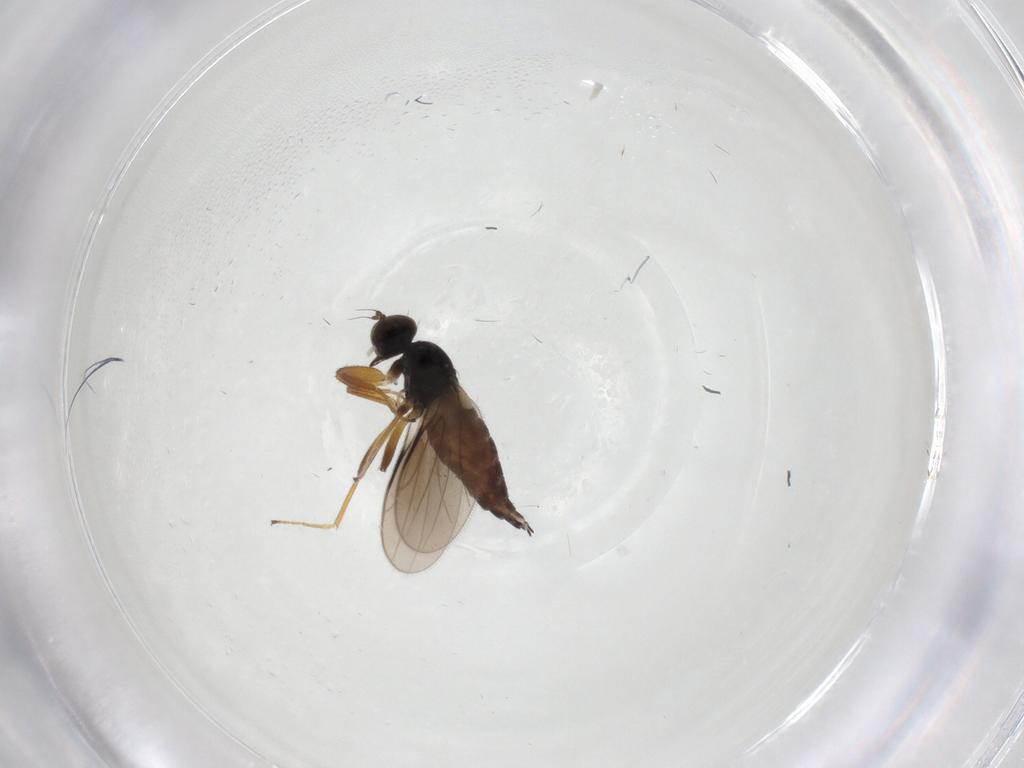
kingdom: Animalia
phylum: Arthropoda
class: Insecta
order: Diptera
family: Hybotidae
